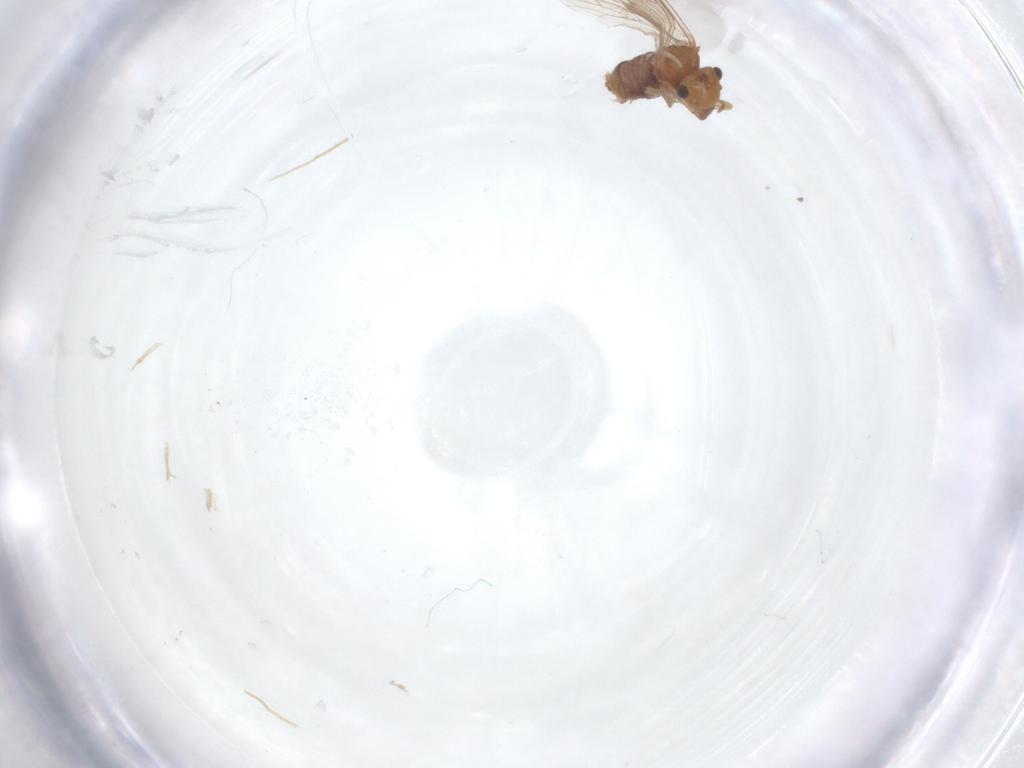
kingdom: Animalia
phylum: Arthropoda
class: Insecta
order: Psocodea
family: Lachesillidae
